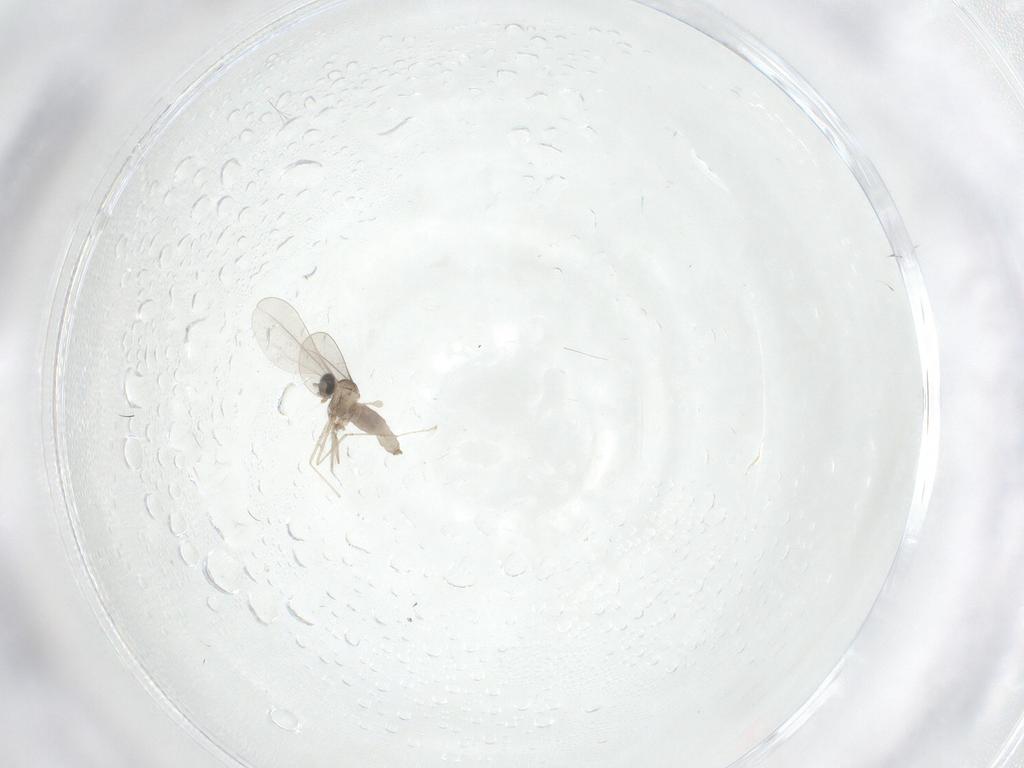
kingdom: Animalia
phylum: Arthropoda
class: Insecta
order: Diptera
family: Cecidomyiidae
